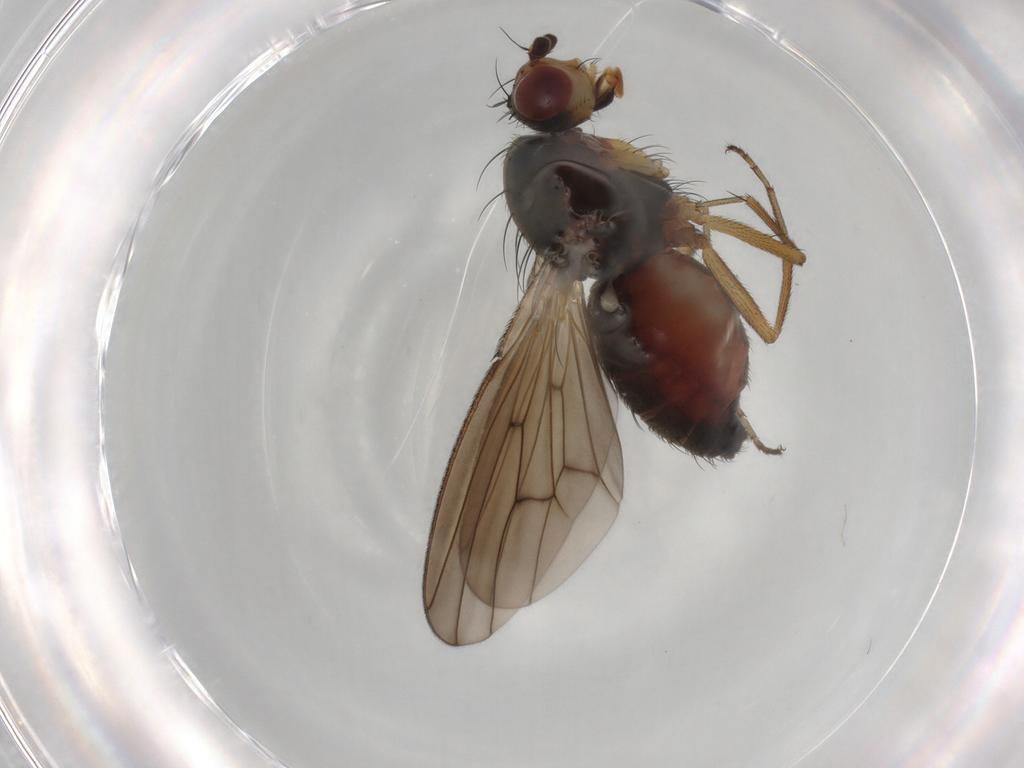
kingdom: Animalia
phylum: Arthropoda
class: Insecta
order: Diptera
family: Heleomyzidae
